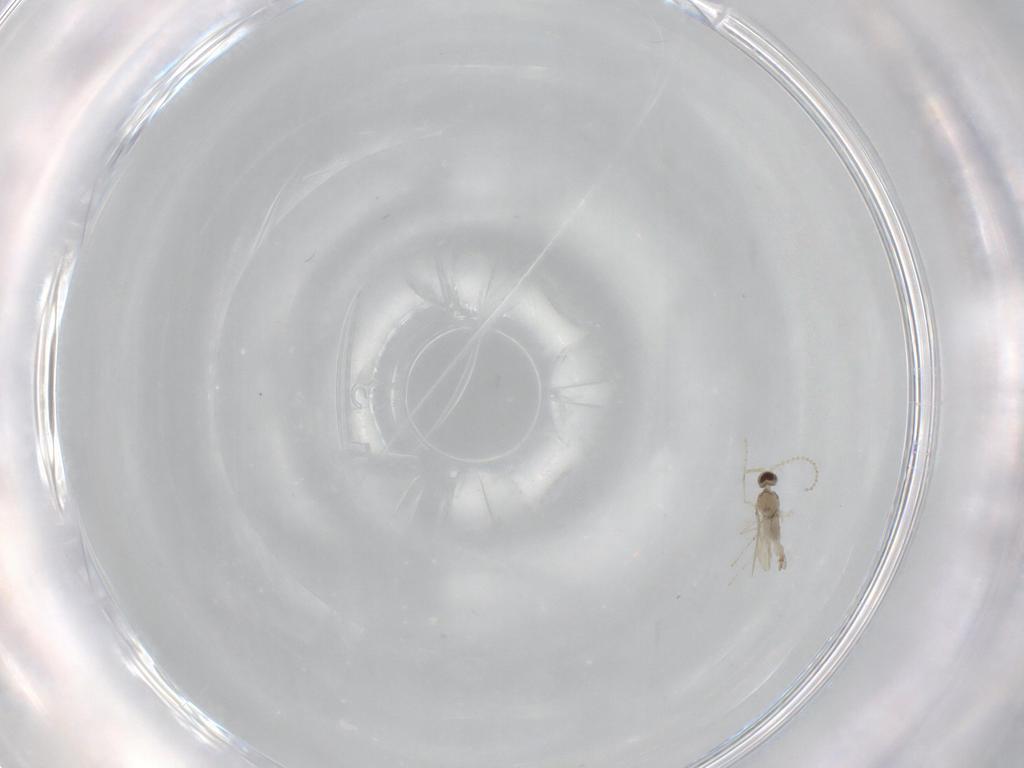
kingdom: Animalia
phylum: Arthropoda
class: Insecta
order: Diptera
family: Cecidomyiidae
